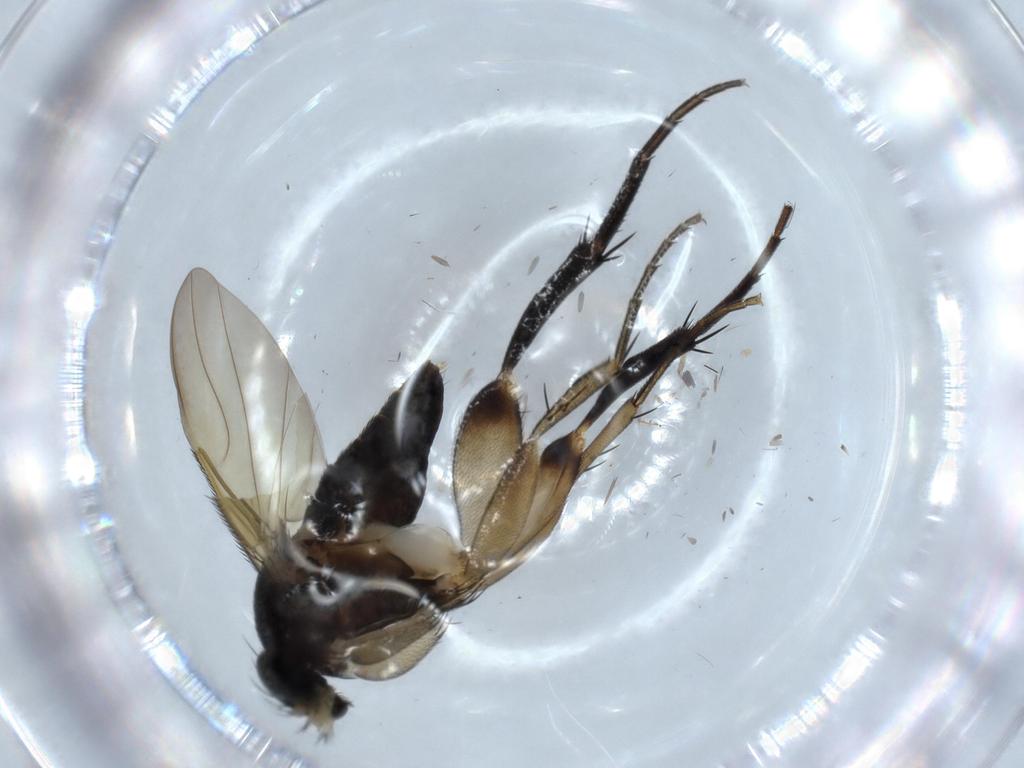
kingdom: Animalia
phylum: Arthropoda
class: Insecta
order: Diptera
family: Phoridae
